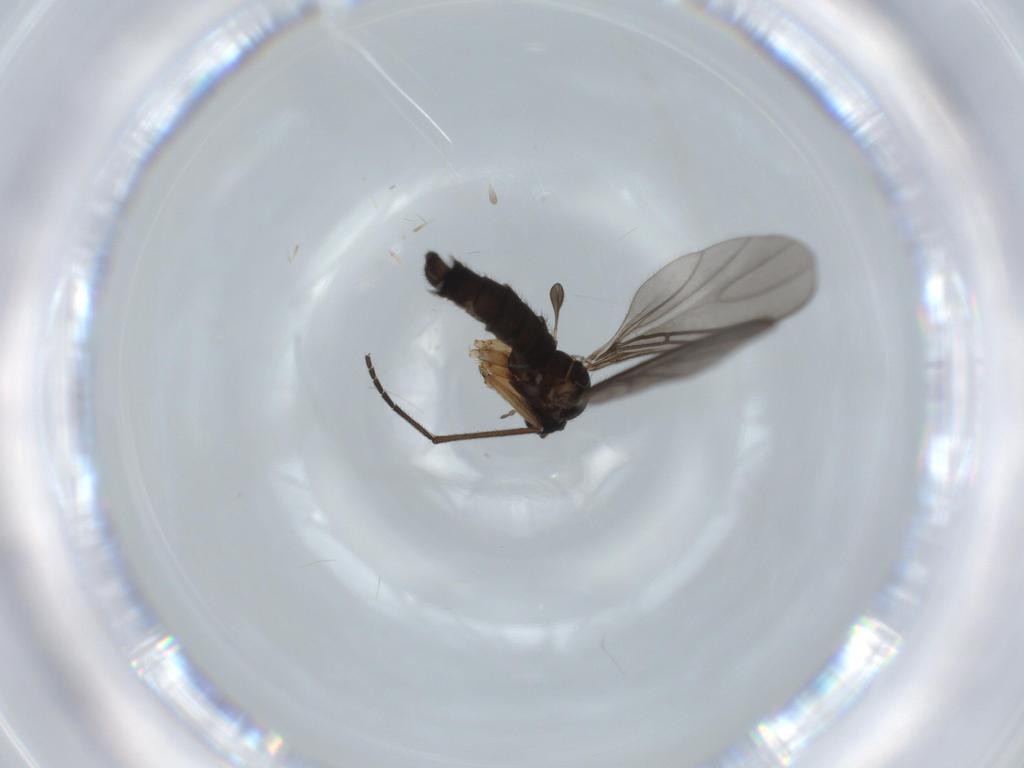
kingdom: Animalia
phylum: Arthropoda
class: Insecta
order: Diptera
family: Sciaridae
